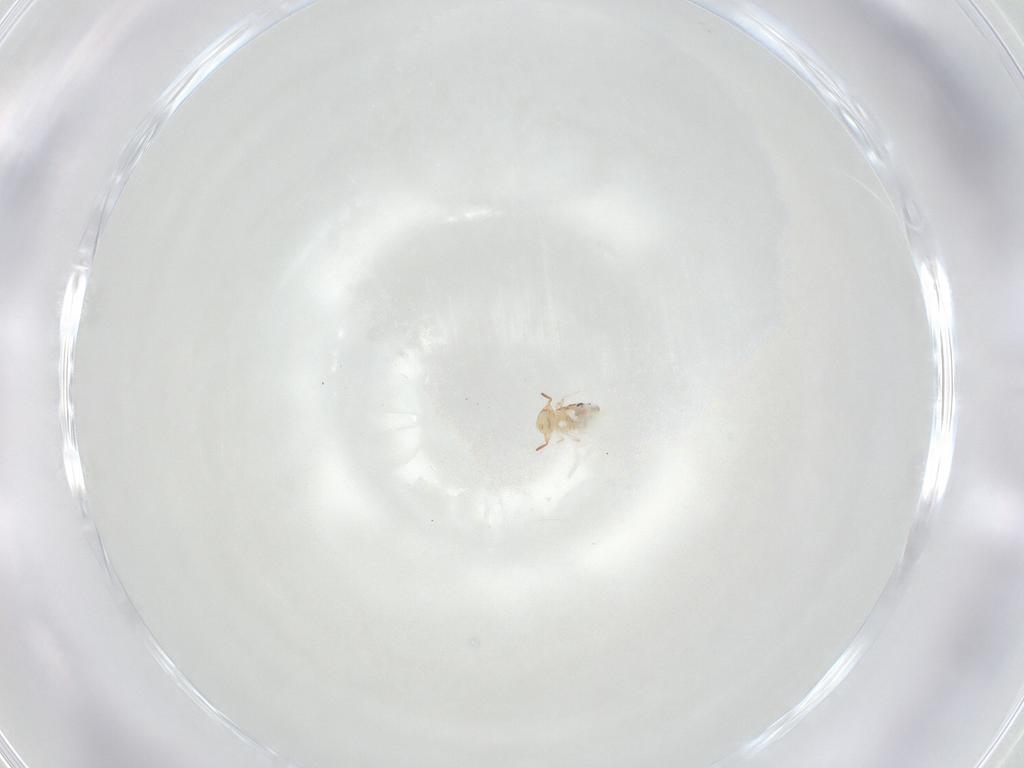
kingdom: Animalia
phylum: Arthropoda
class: Collembola
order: Symphypleona
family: Bourletiellidae
